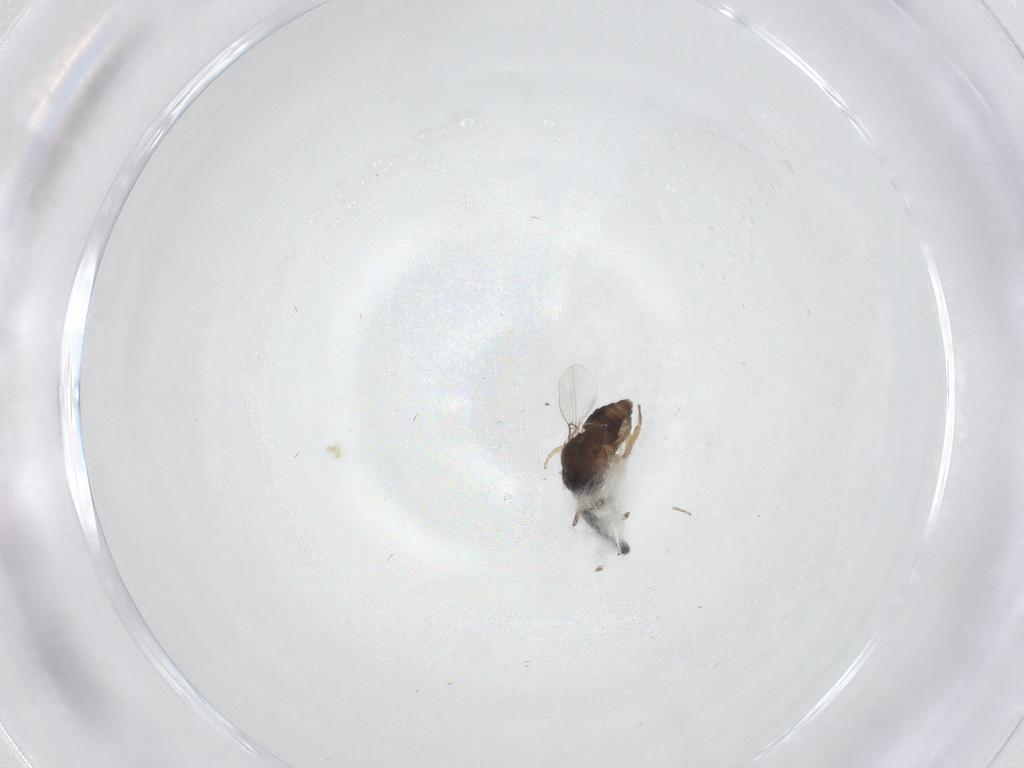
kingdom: Animalia
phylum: Arthropoda
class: Insecta
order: Diptera
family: Phoridae
